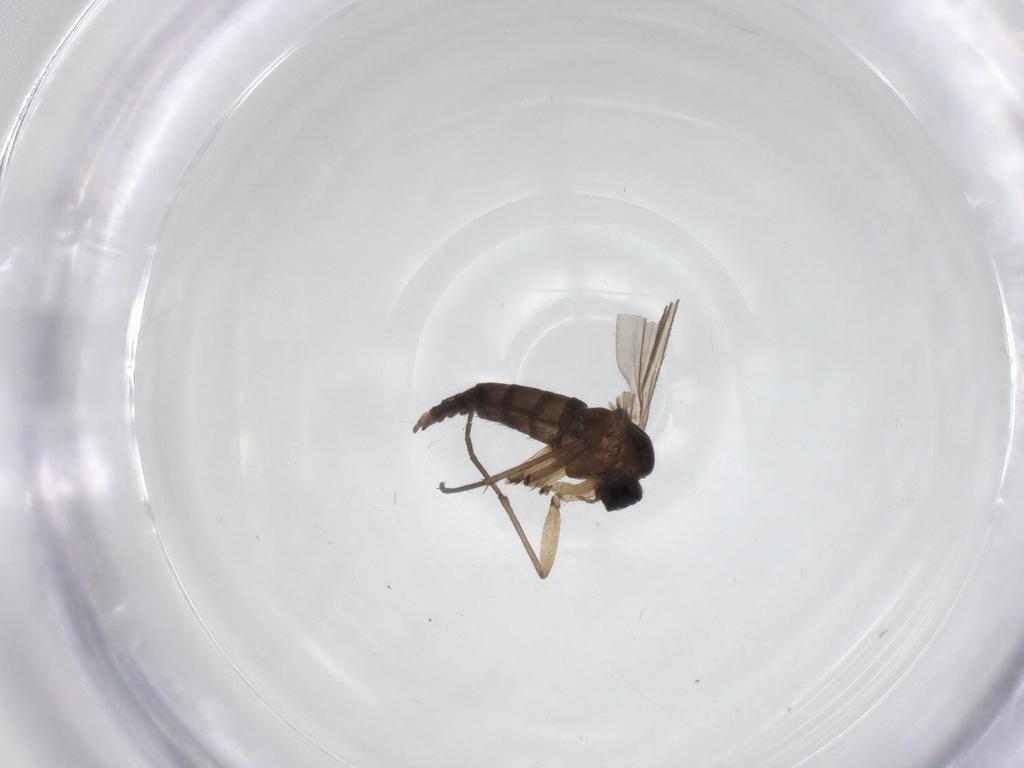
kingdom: Animalia
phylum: Arthropoda
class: Insecta
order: Diptera
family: Sciaridae
